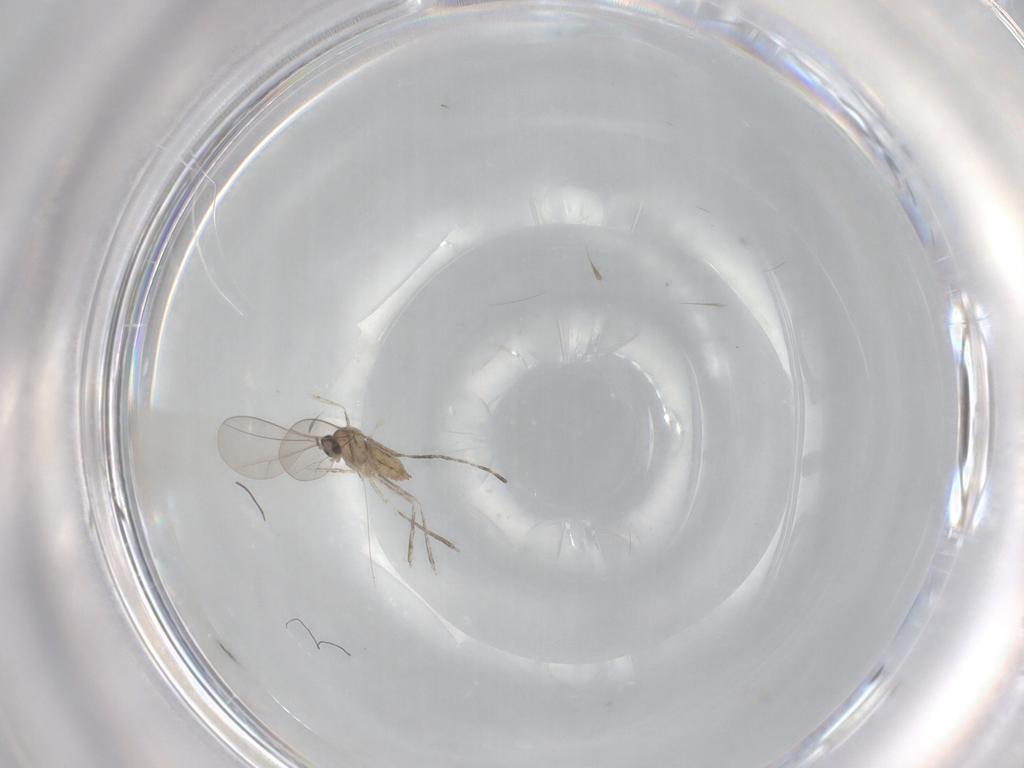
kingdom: Animalia
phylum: Arthropoda
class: Insecta
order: Diptera
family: Cecidomyiidae
